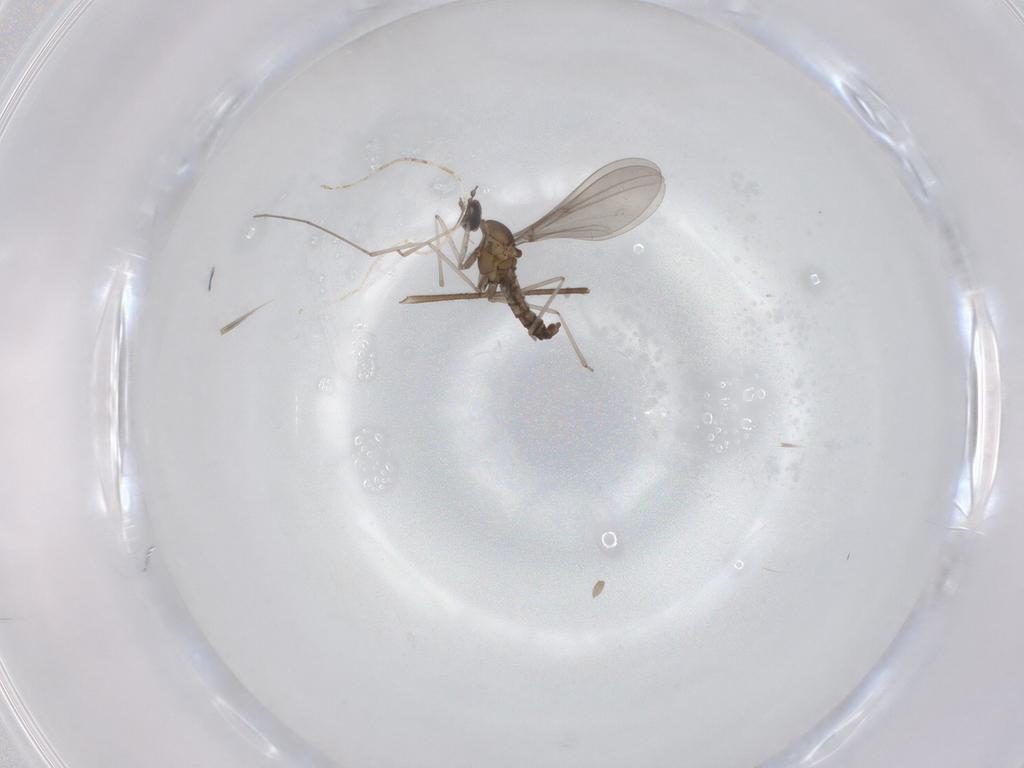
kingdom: Animalia
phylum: Arthropoda
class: Insecta
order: Diptera
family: Limoniidae
